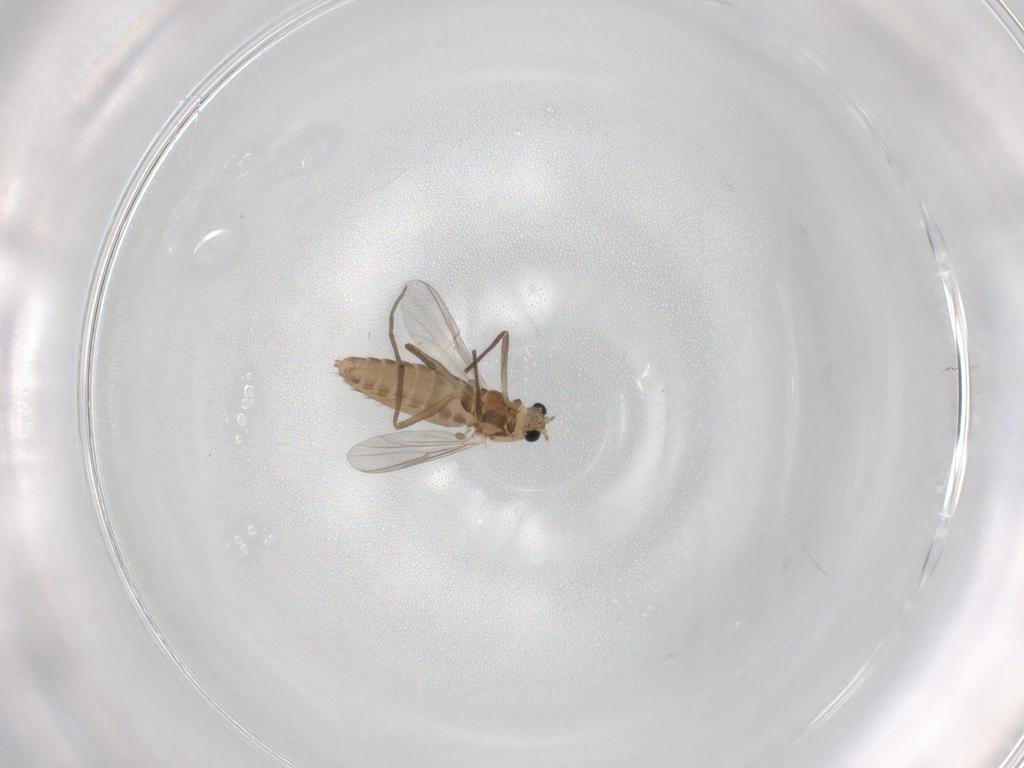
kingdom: Animalia
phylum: Arthropoda
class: Insecta
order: Diptera
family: Chironomidae
